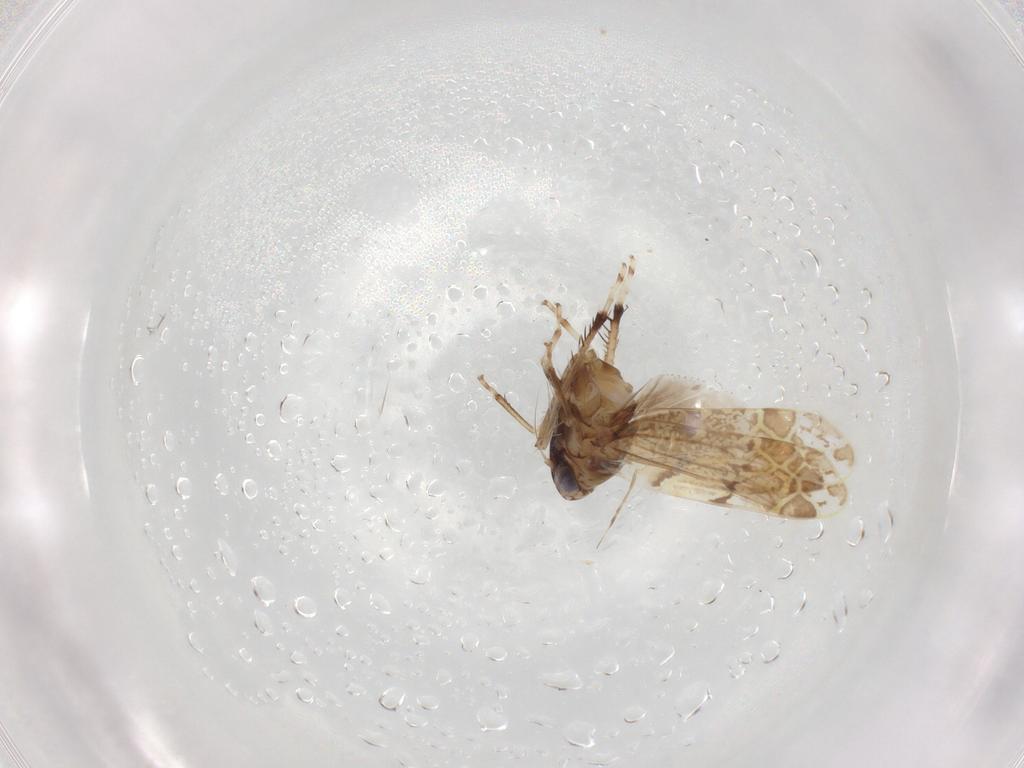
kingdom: Animalia
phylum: Arthropoda
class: Insecta
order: Hemiptera
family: Cicadellidae
